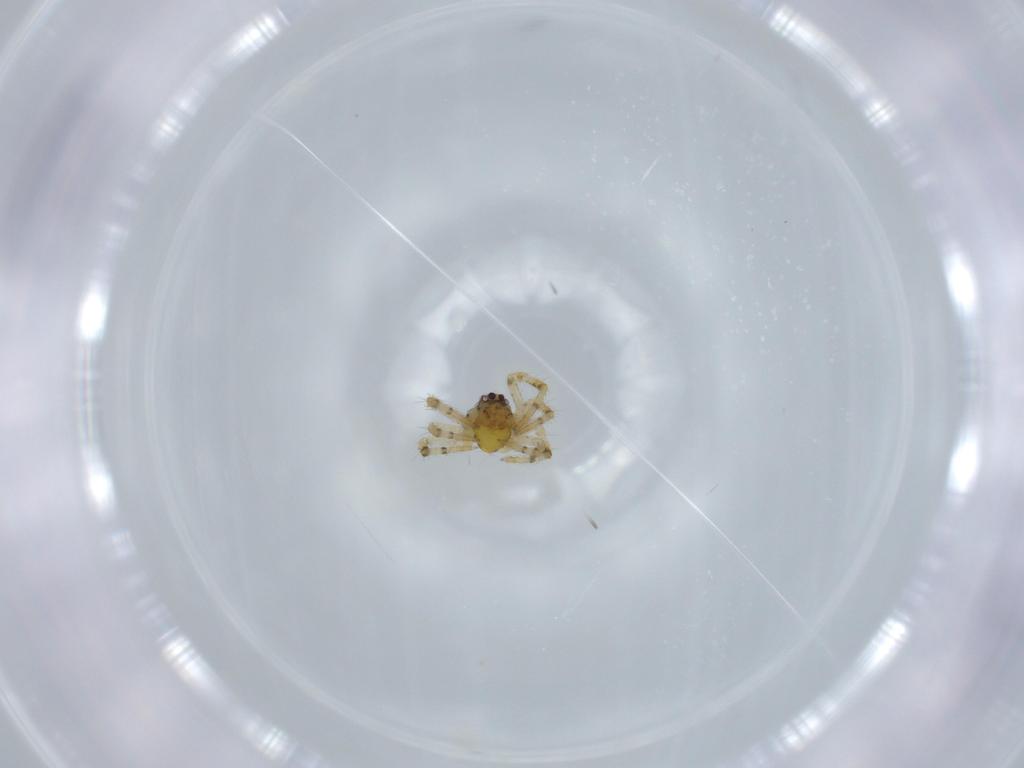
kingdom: Animalia
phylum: Arthropoda
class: Arachnida
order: Araneae
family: Theridiidae
